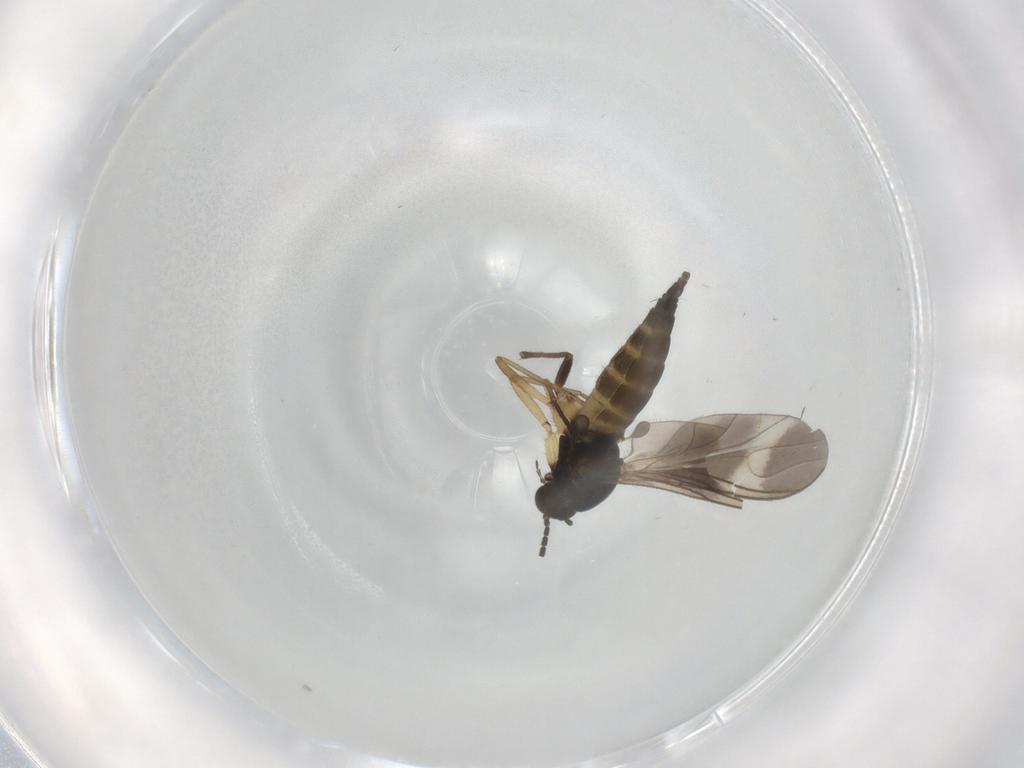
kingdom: Animalia
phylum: Arthropoda
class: Insecta
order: Diptera
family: Sciaridae
